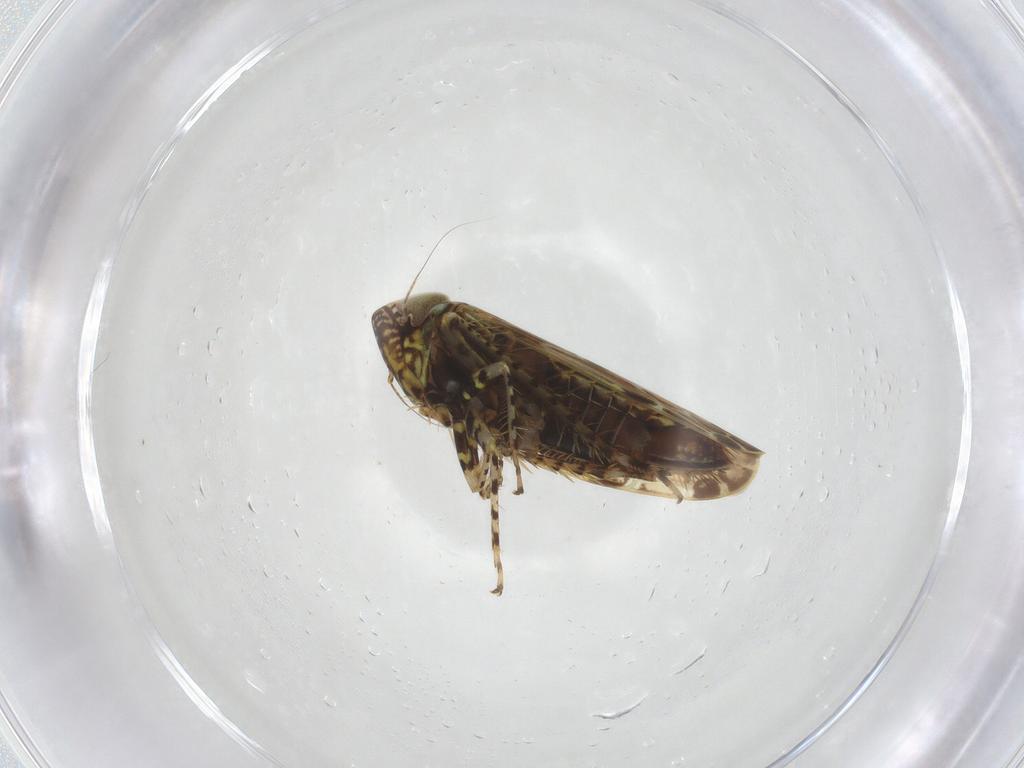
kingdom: Animalia
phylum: Arthropoda
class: Insecta
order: Hemiptera
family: Cicadellidae
